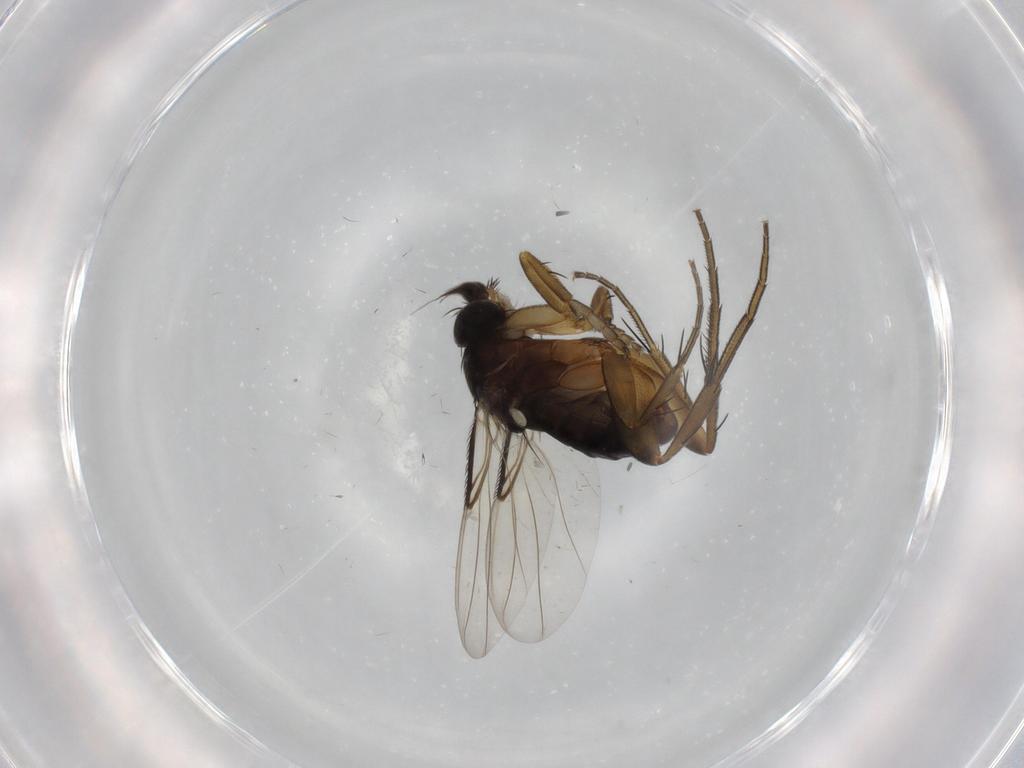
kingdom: Animalia
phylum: Arthropoda
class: Insecta
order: Diptera
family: Phoridae
